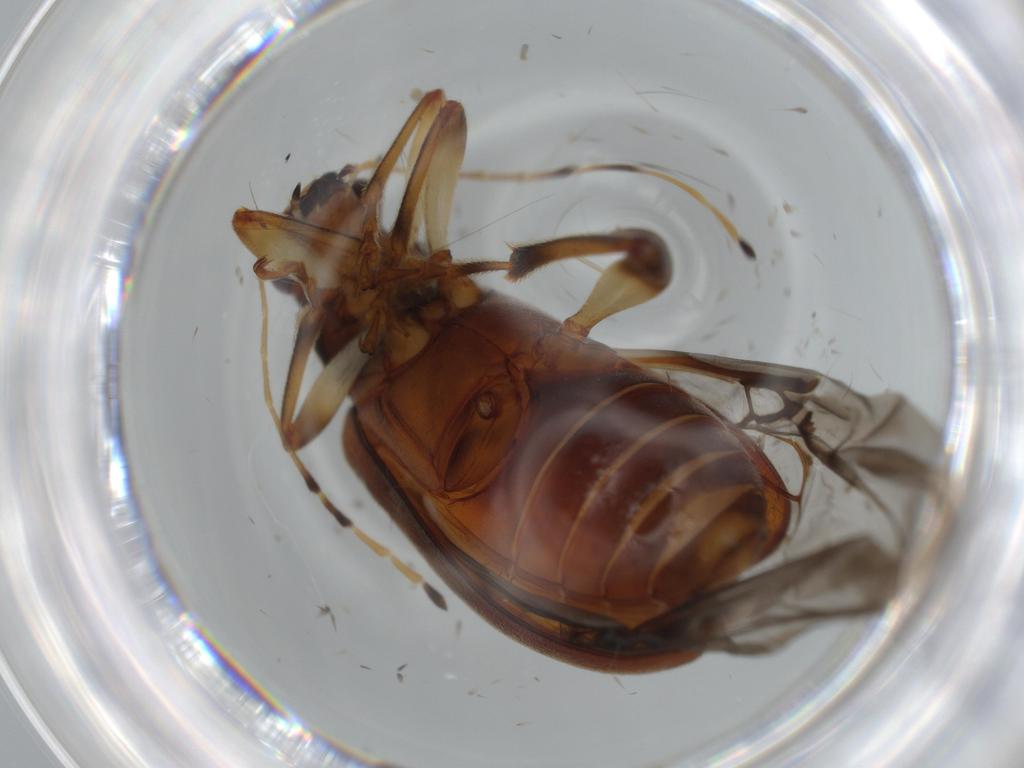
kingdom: Animalia
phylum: Arthropoda
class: Insecta
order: Coleoptera
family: Chrysomelidae
